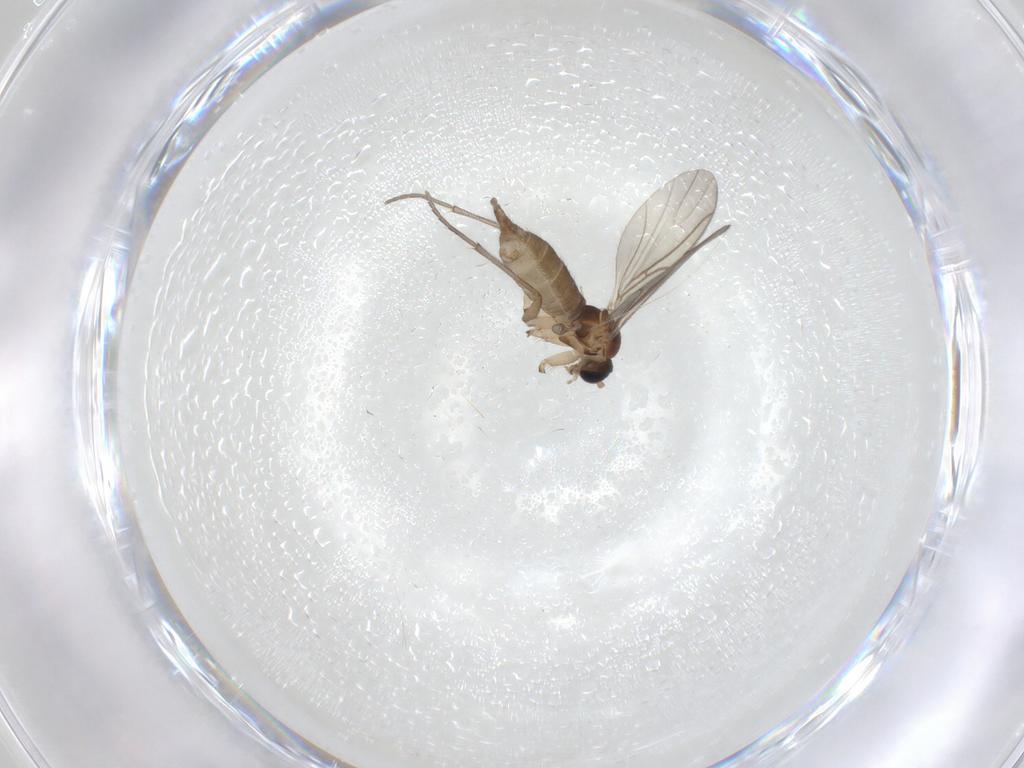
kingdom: Animalia
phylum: Arthropoda
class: Insecta
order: Diptera
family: Sciaridae
